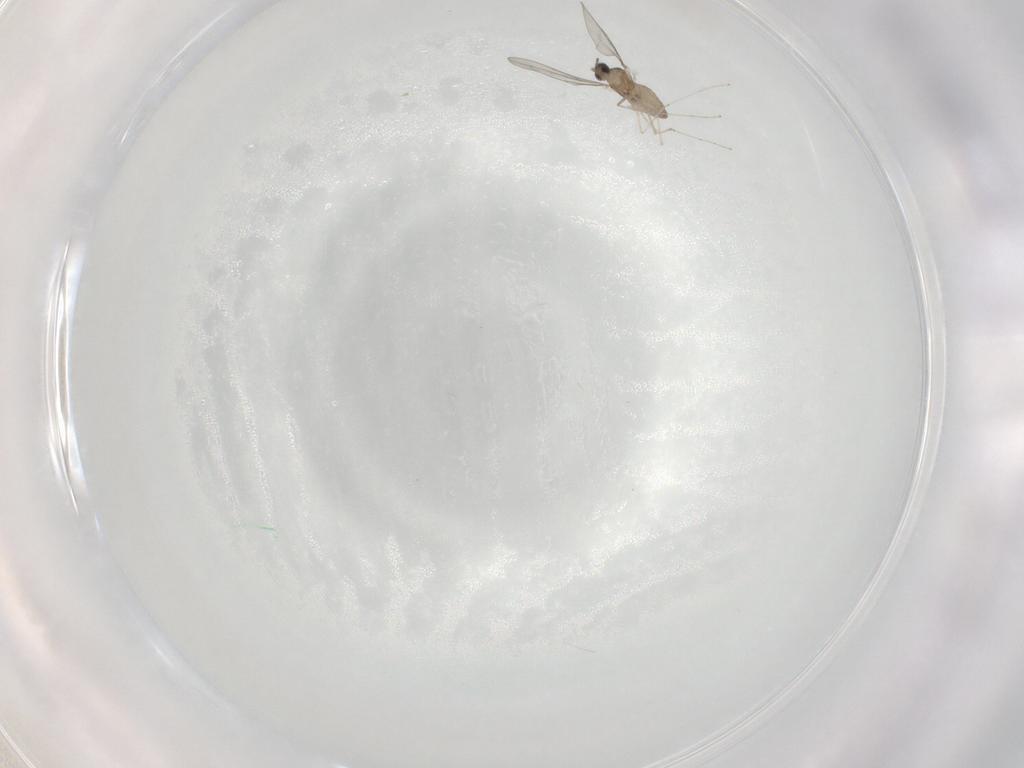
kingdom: Animalia
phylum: Arthropoda
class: Insecta
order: Diptera
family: Cecidomyiidae
